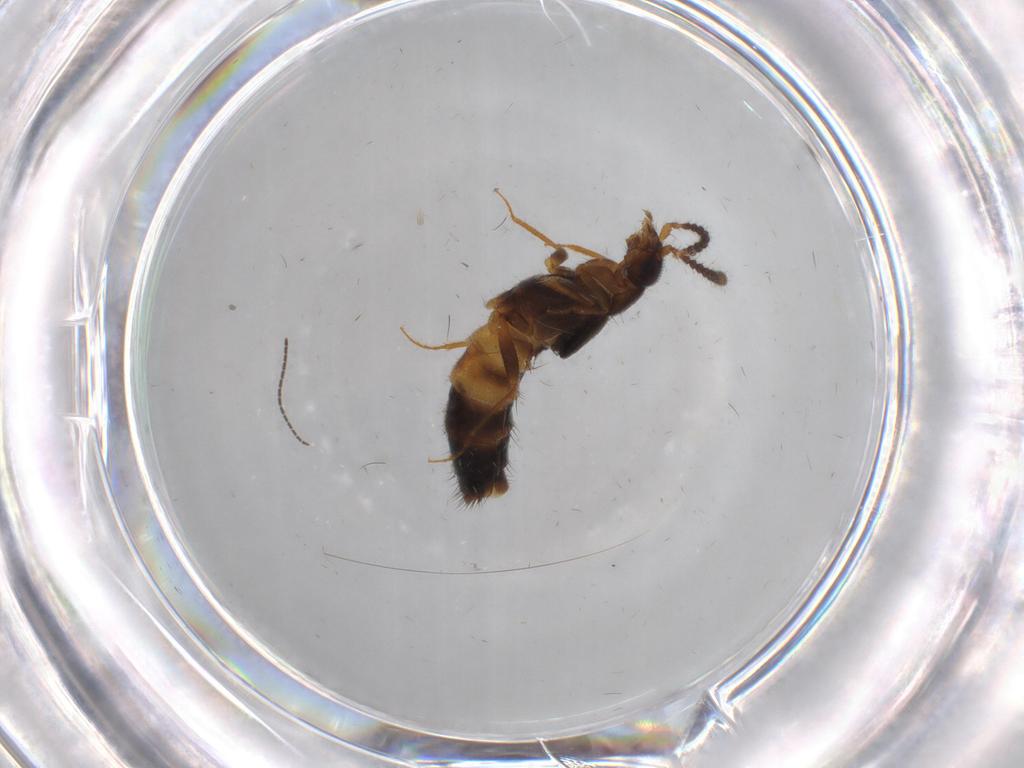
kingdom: Animalia
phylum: Arthropoda
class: Insecta
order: Coleoptera
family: Staphylinidae
